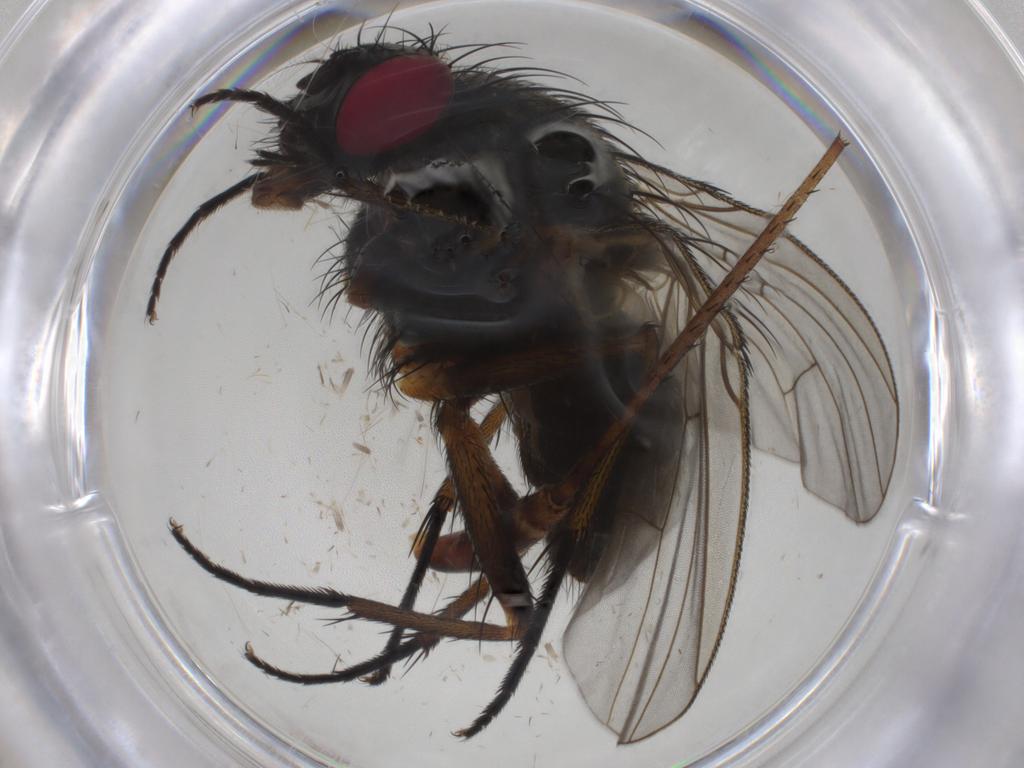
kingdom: Animalia
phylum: Arthropoda
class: Insecta
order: Diptera
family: Muscidae
